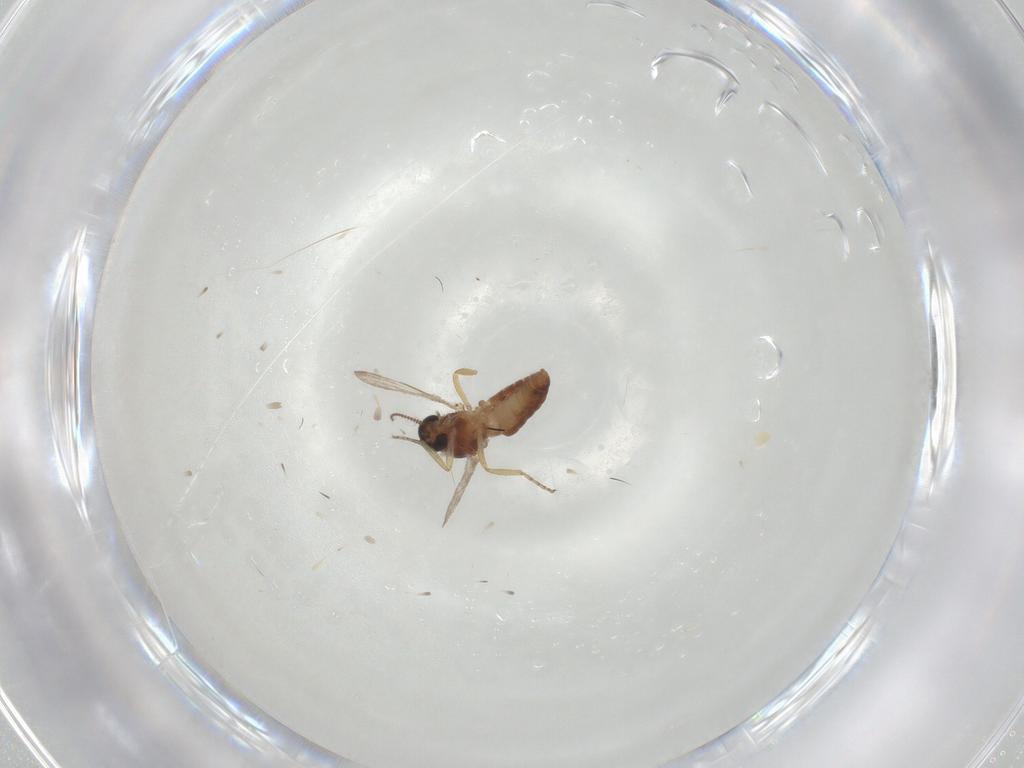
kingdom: Animalia
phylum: Arthropoda
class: Insecta
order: Diptera
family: Ceratopogonidae
